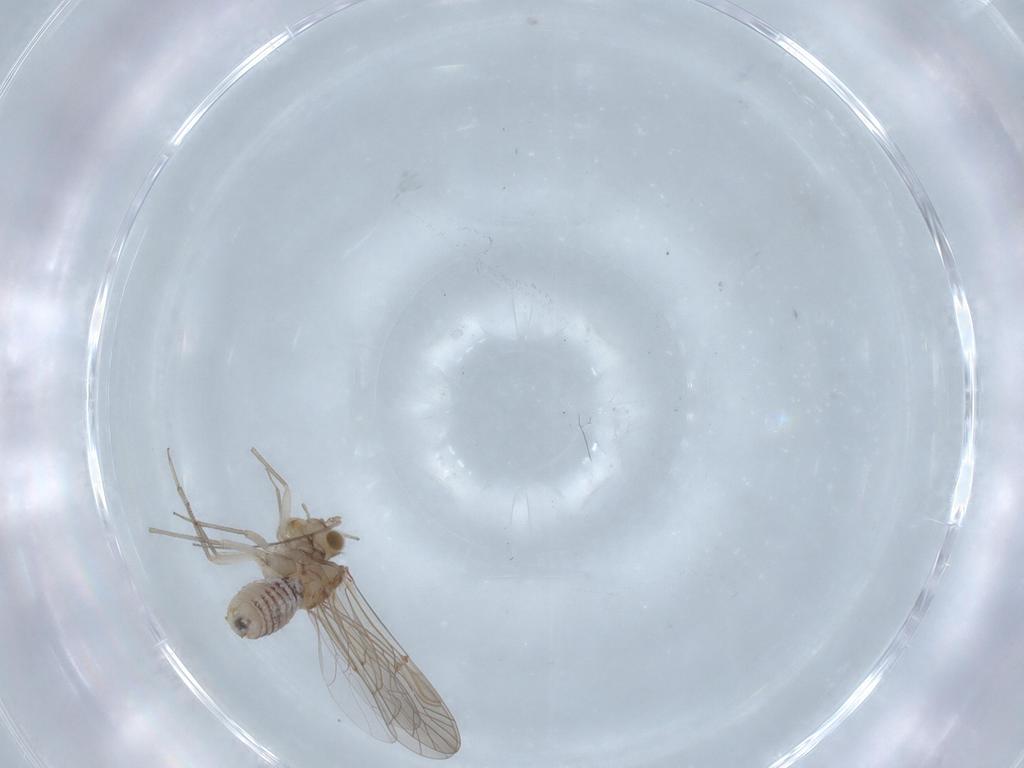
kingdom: Animalia
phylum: Arthropoda
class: Insecta
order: Psocodea
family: Lachesillidae
